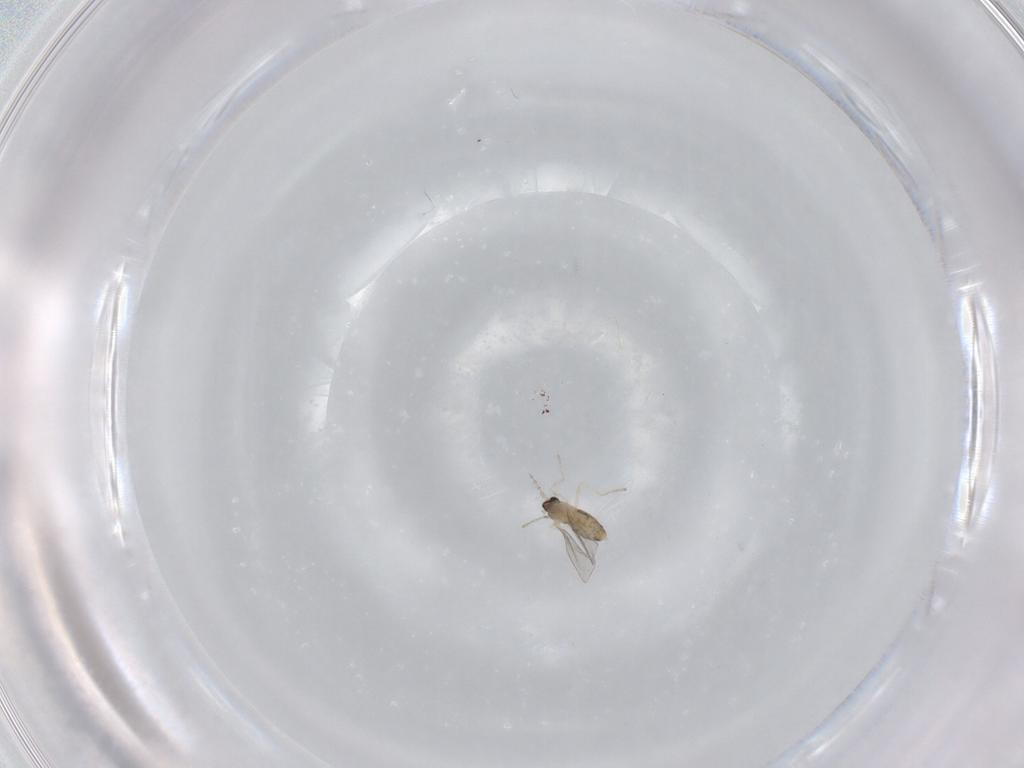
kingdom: Animalia
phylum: Arthropoda
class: Insecta
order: Diptera
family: Cecidomyiidae
